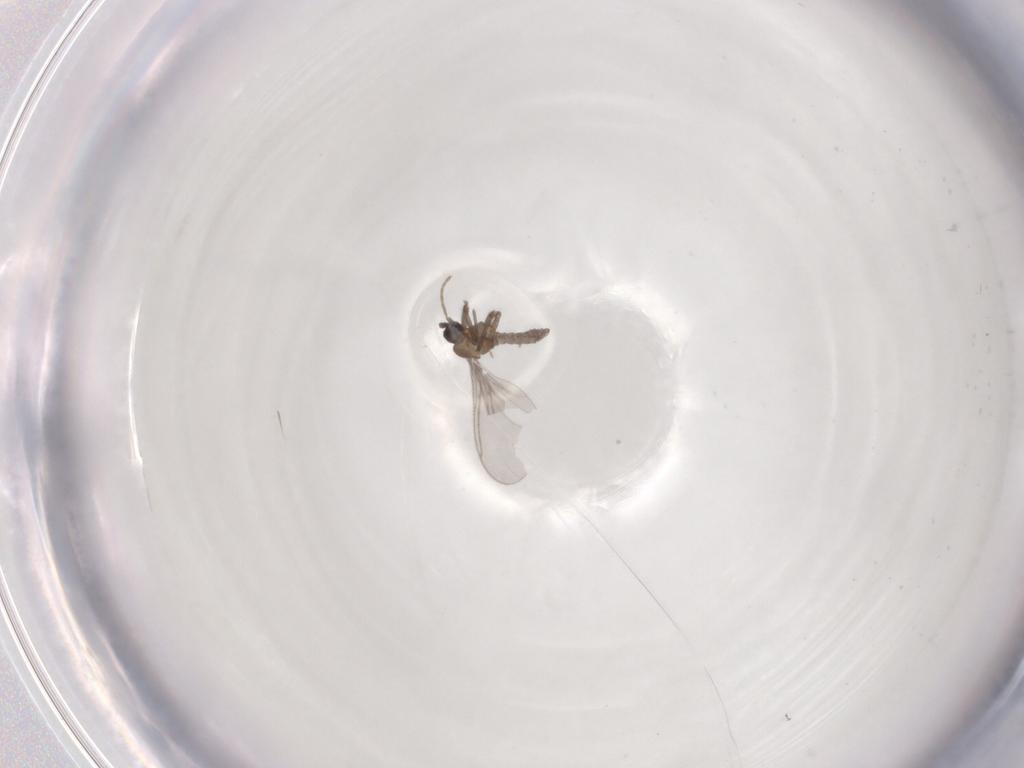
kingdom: Animalia
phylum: Arthropoda
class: Insecta
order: Diptera
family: Sciaridae
